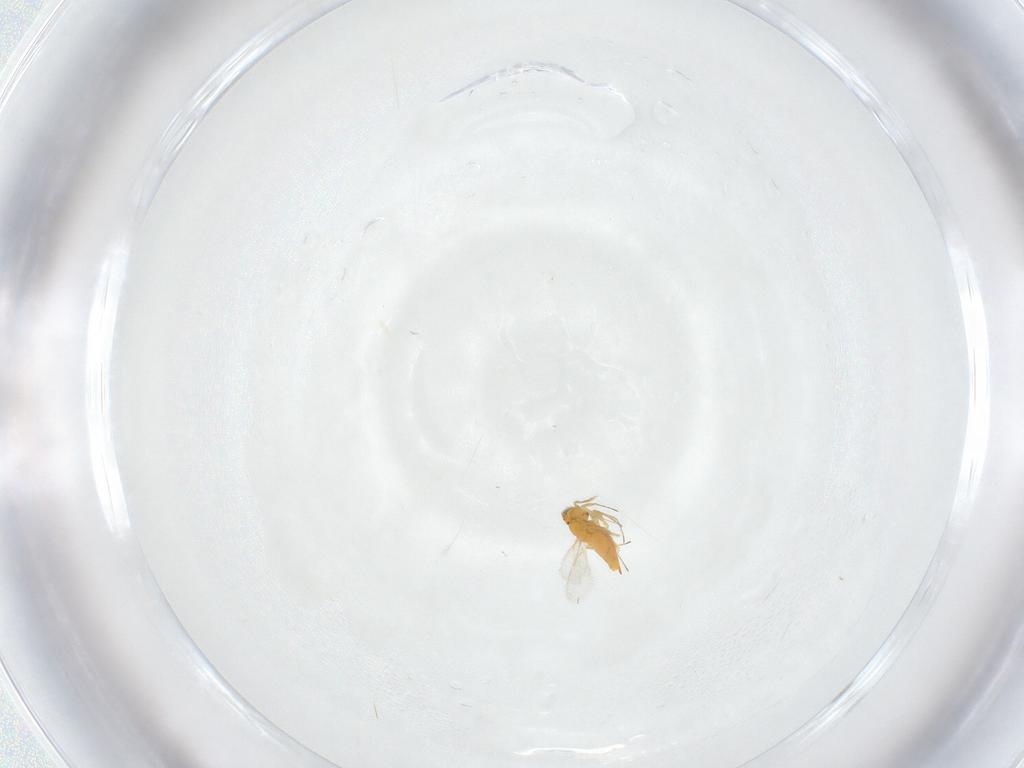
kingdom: Animalia
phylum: Arthropoda
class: Insecta
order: Hymenoptera
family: Aphelinidae
